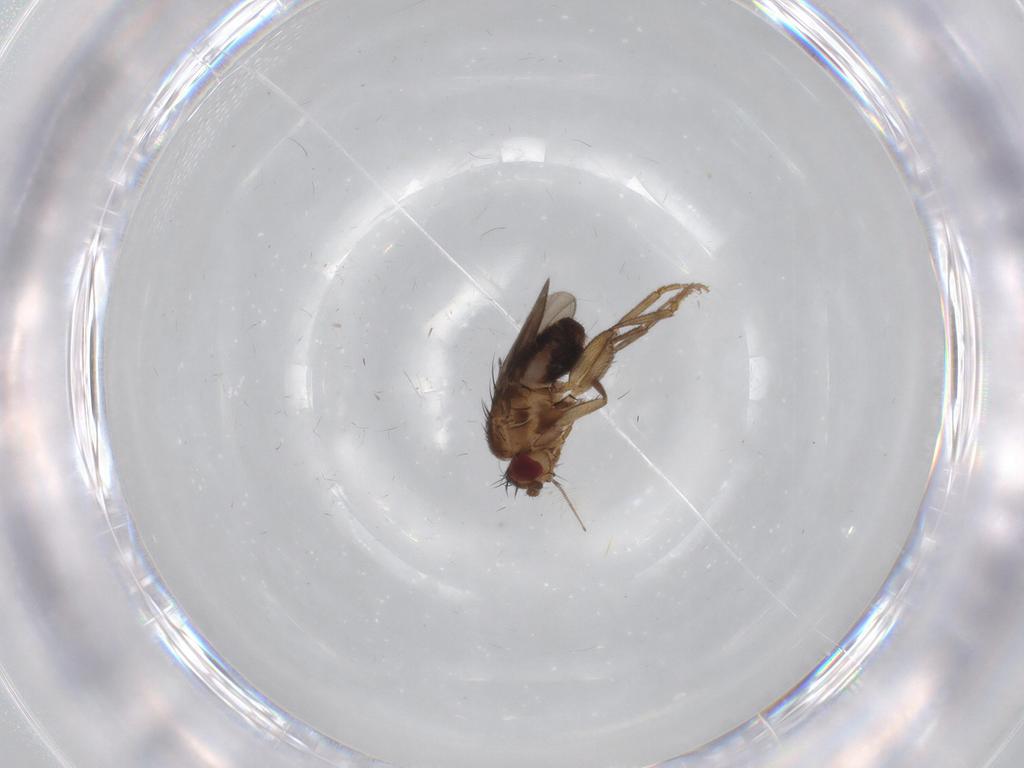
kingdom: Animalia
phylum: Arthropoda
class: Insecta
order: Diptera
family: Sphaeroceridae
